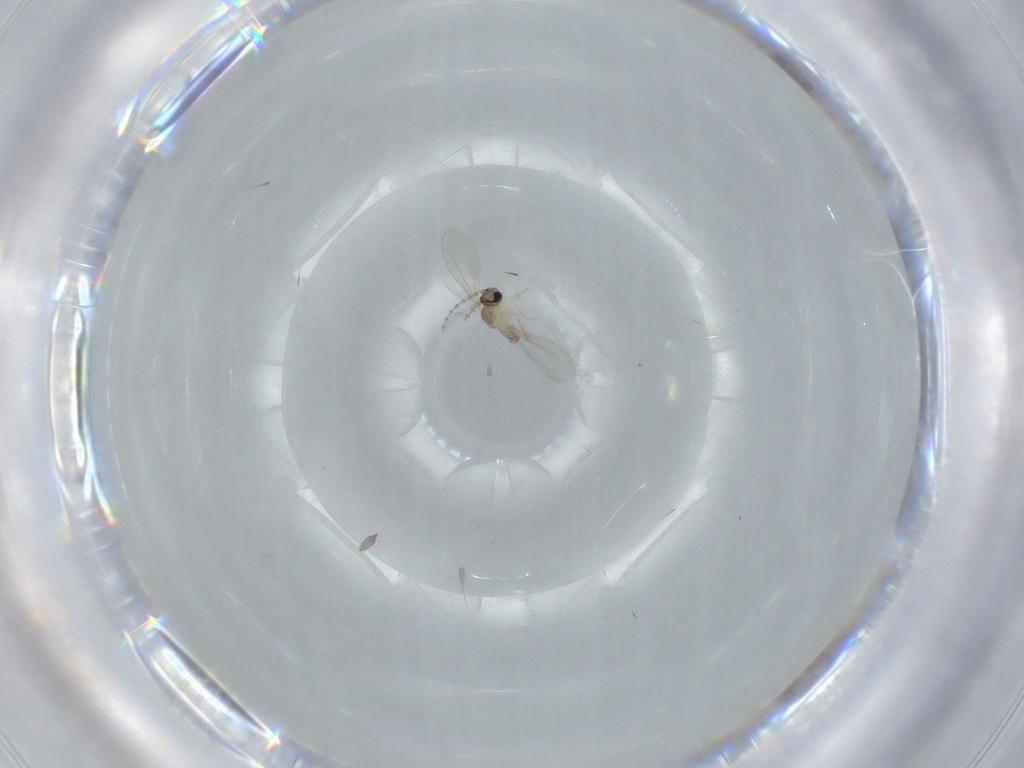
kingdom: Animalia
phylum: Arthropoda
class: Insecta
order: Diptera
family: Cecidomyiidae
